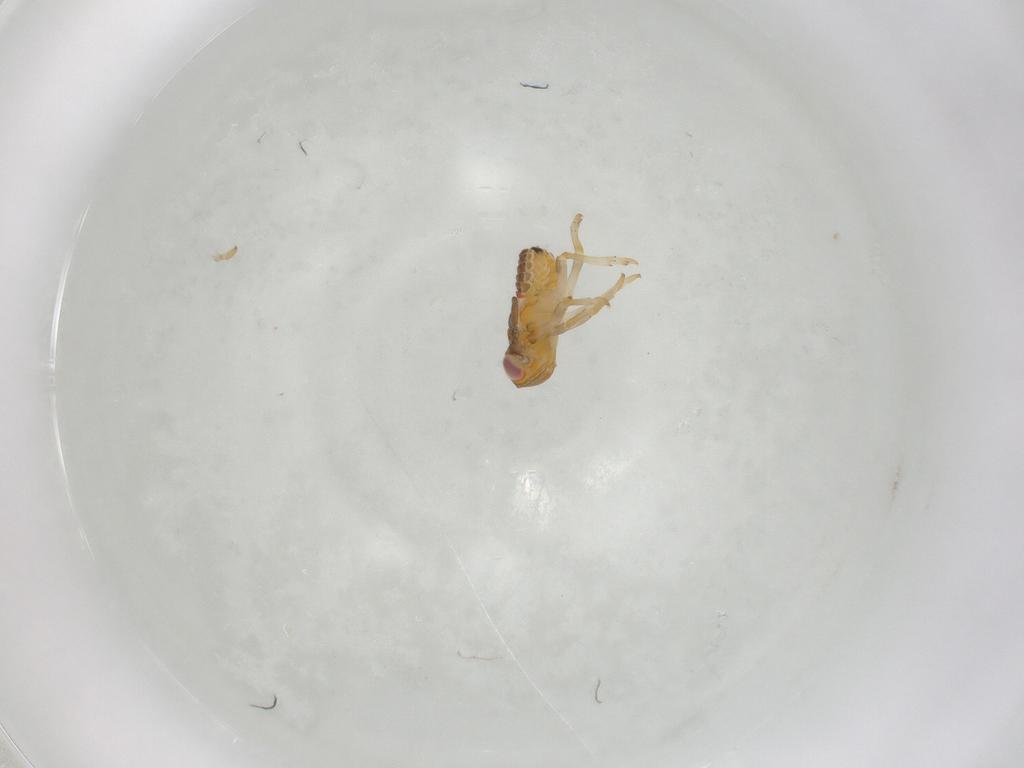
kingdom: Animalia
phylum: Arthropoda
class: Insecta
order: Hemiptera
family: Issidae
